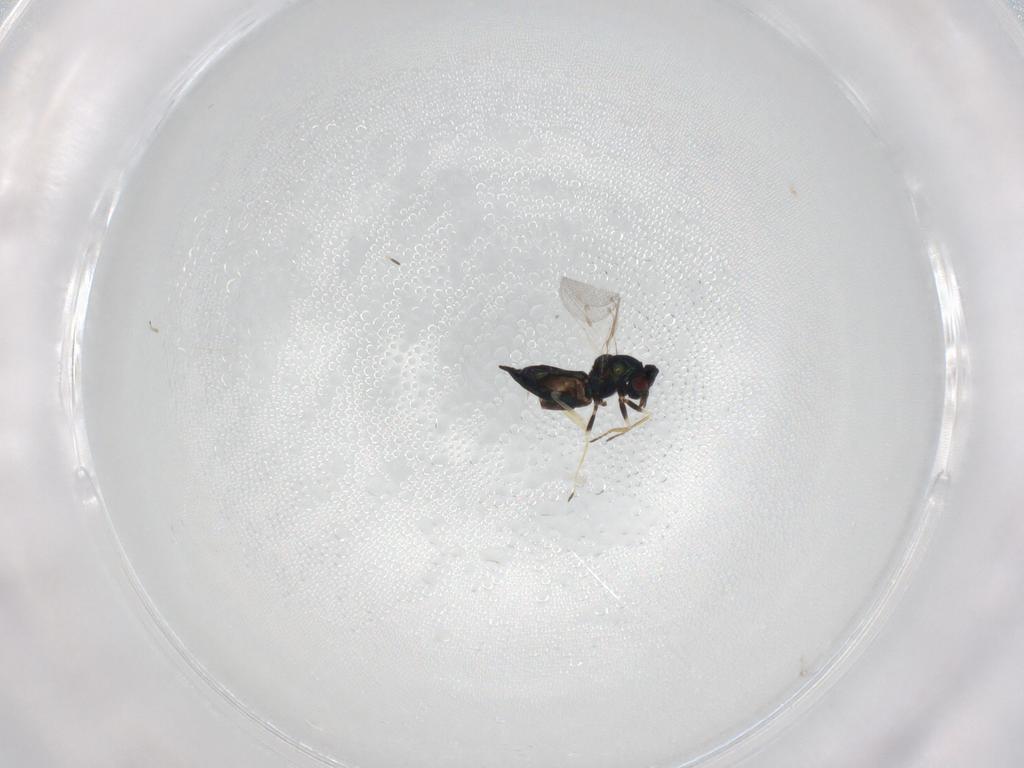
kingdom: Animalia
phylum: Arthropoda
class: Insecta
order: Hymenoptera
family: Eulophidae
